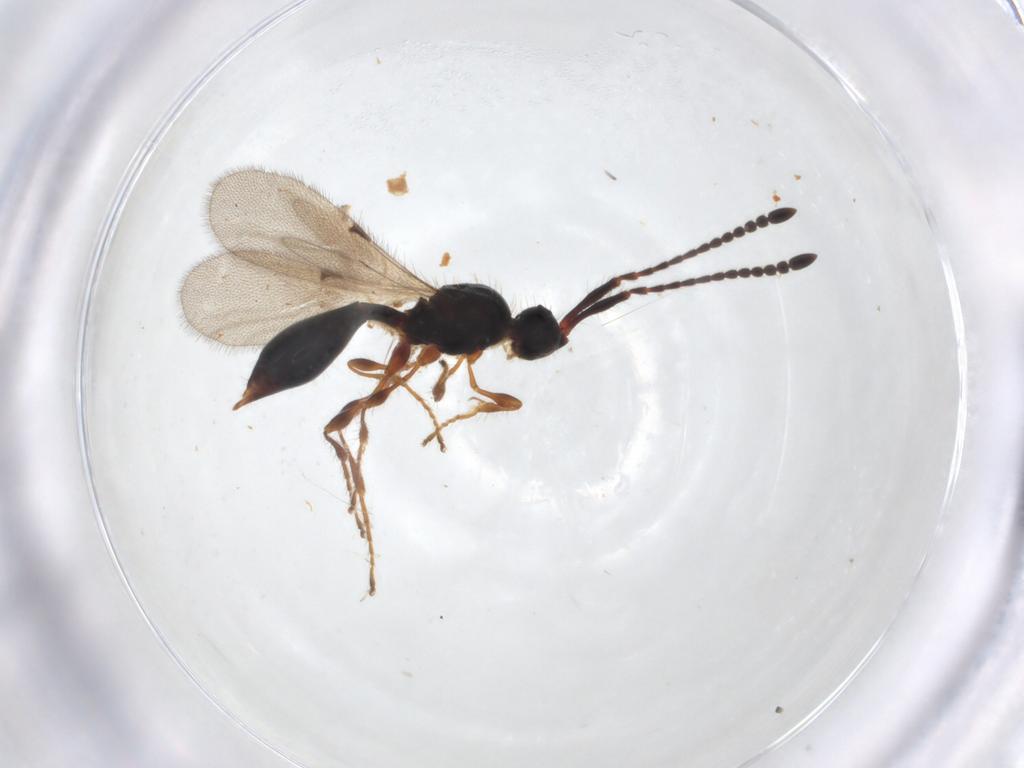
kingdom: Animalia
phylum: Arthropoda
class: Insecta
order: Hymenoptera
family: Diapriidae
